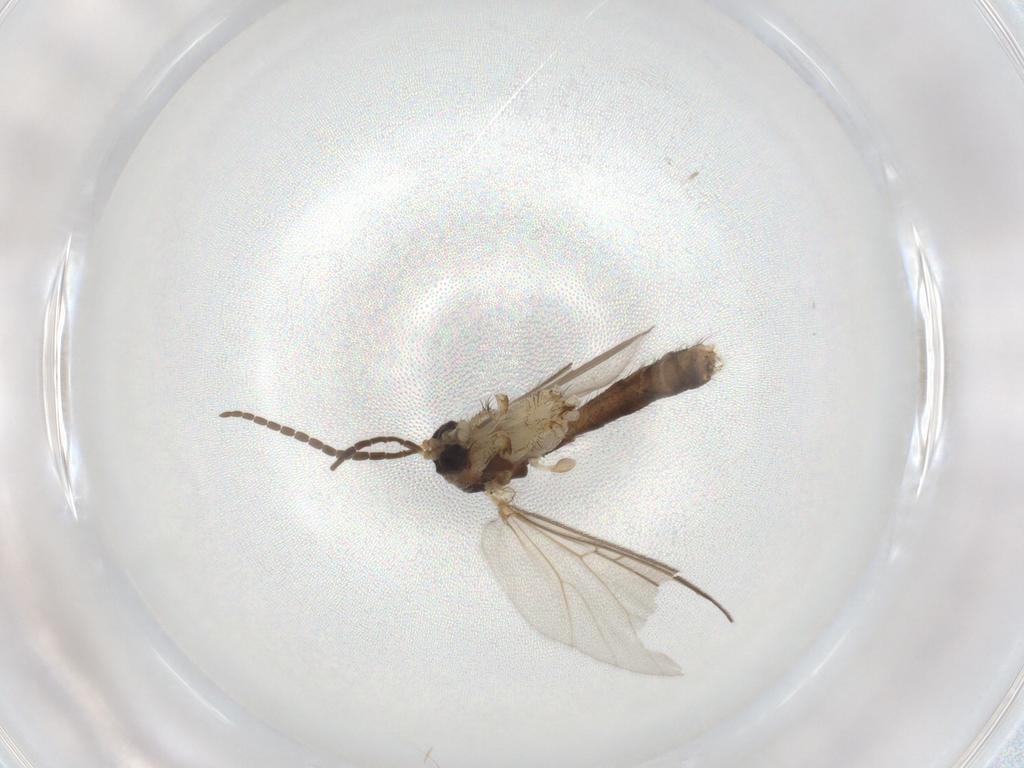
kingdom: Animalia
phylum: Arthropoda
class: Insecta
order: Diptera
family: Mycetophilidae
